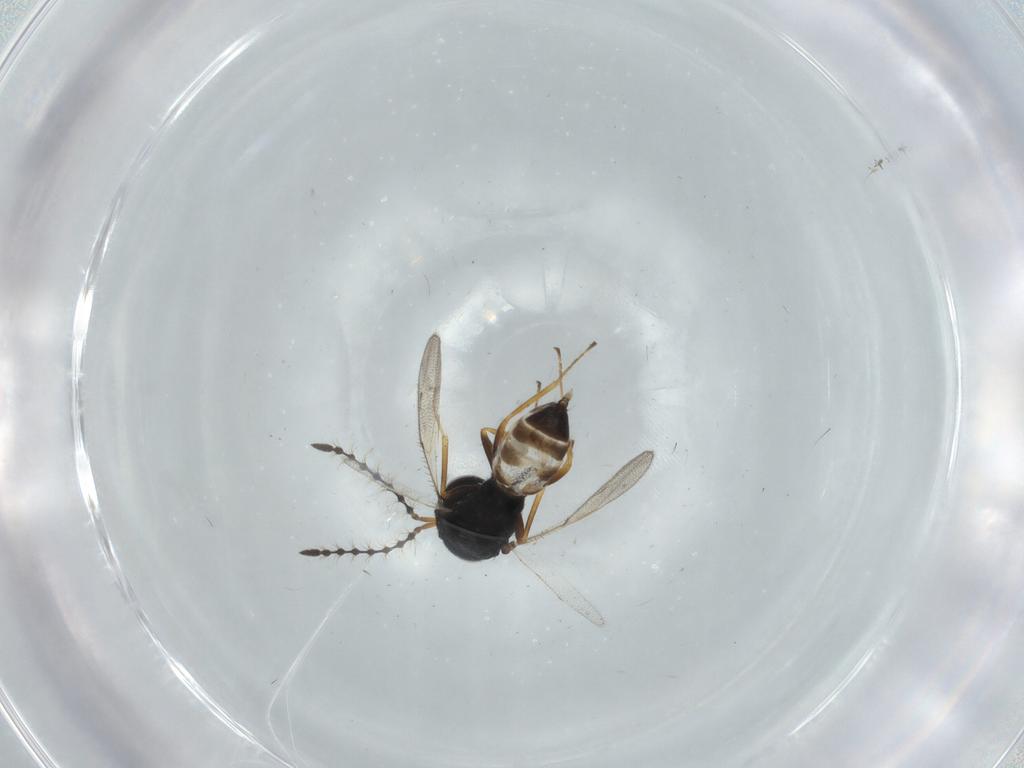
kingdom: Animalia
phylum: Arthropoda
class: Insecta
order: Hymenoptera
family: Pteromalidae
